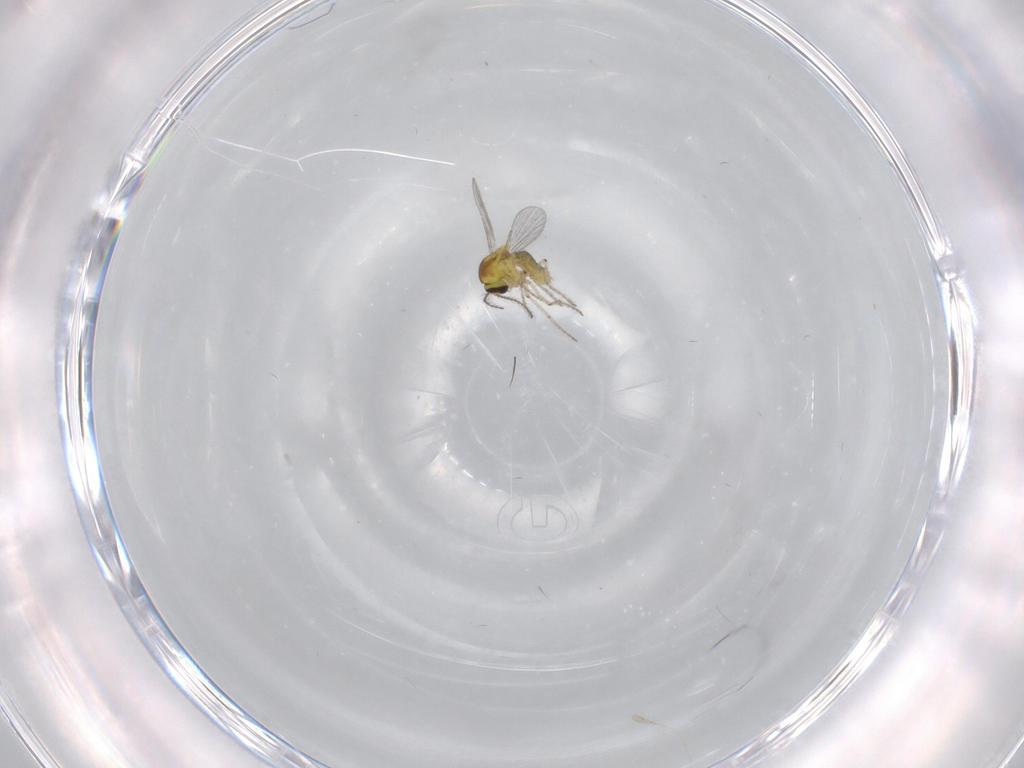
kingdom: Animalia
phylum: Arthropoda
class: Insecta
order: Diptera
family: Ceratopogonidae
